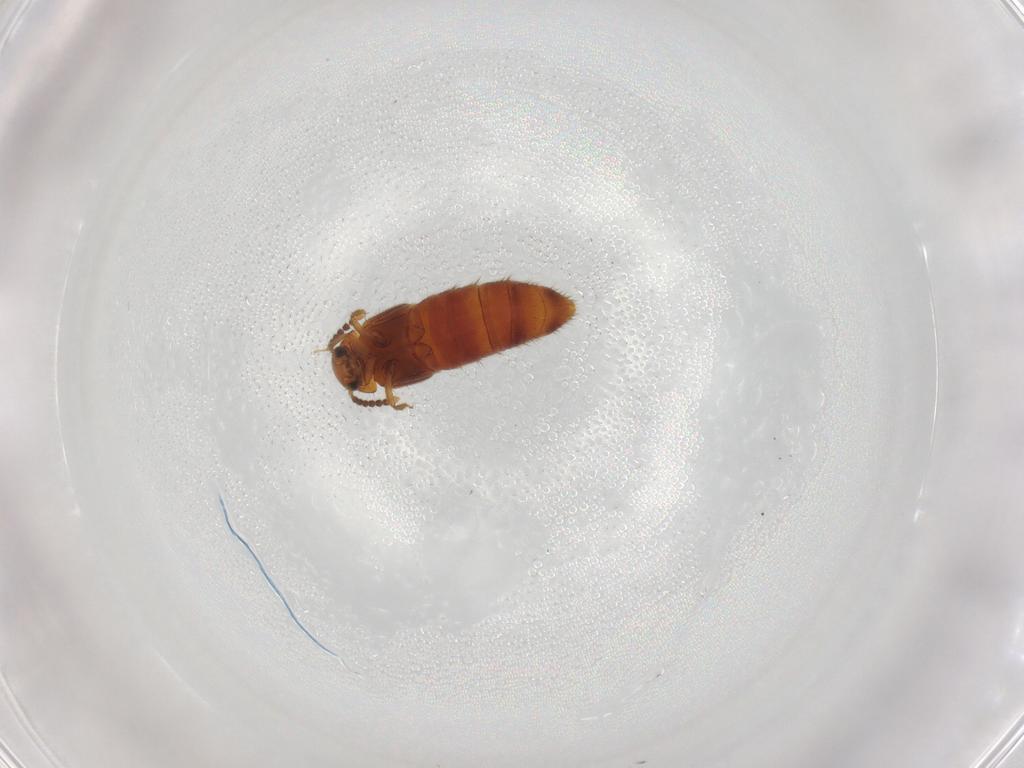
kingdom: Animalia
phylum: Arthropoda
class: Insecta
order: Coleoptera
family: Staphylinidae
